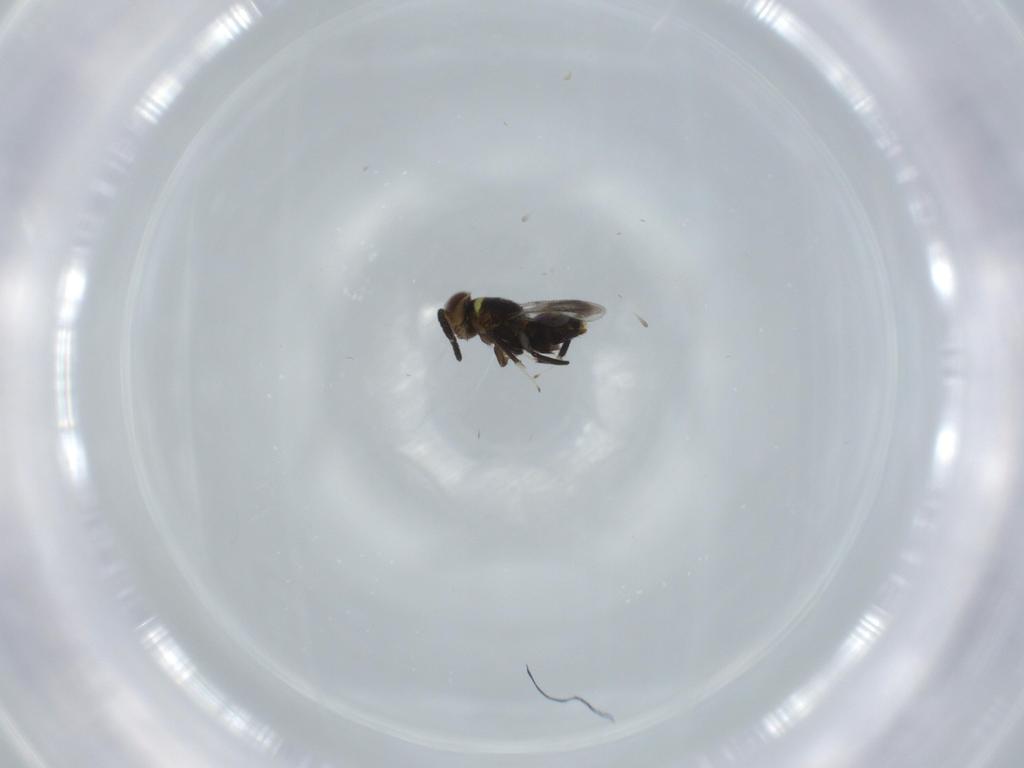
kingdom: Animalia
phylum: Arthropoda
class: Insecta
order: Hymenoptera
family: Aphelinidae
